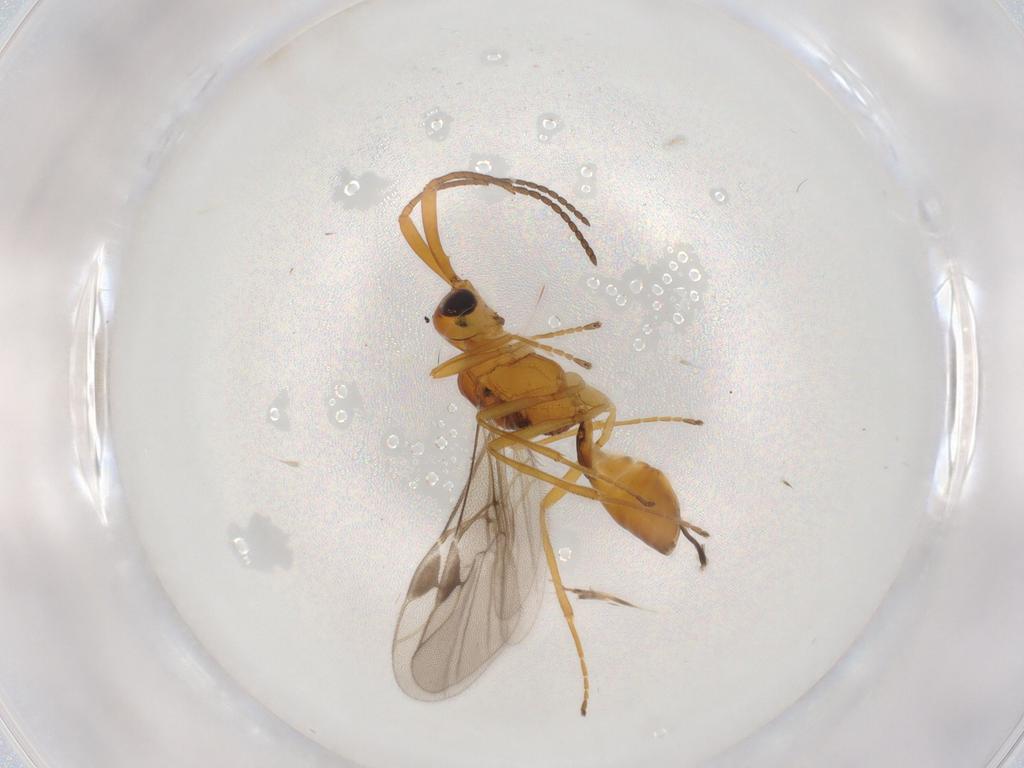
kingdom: Animalia
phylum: Arthropoda
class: Insecta
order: Hymenoptera
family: Braconidae
